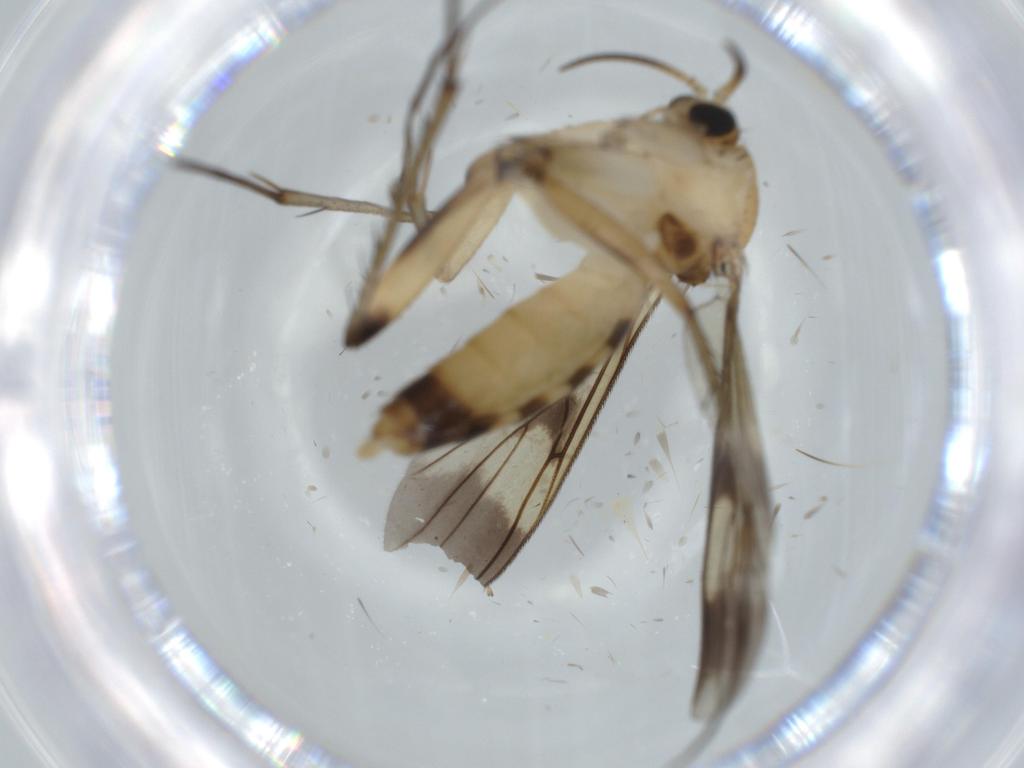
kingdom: Animalia
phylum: Arthropoda
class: Insecta
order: Diptera
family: Mycetophilidae
